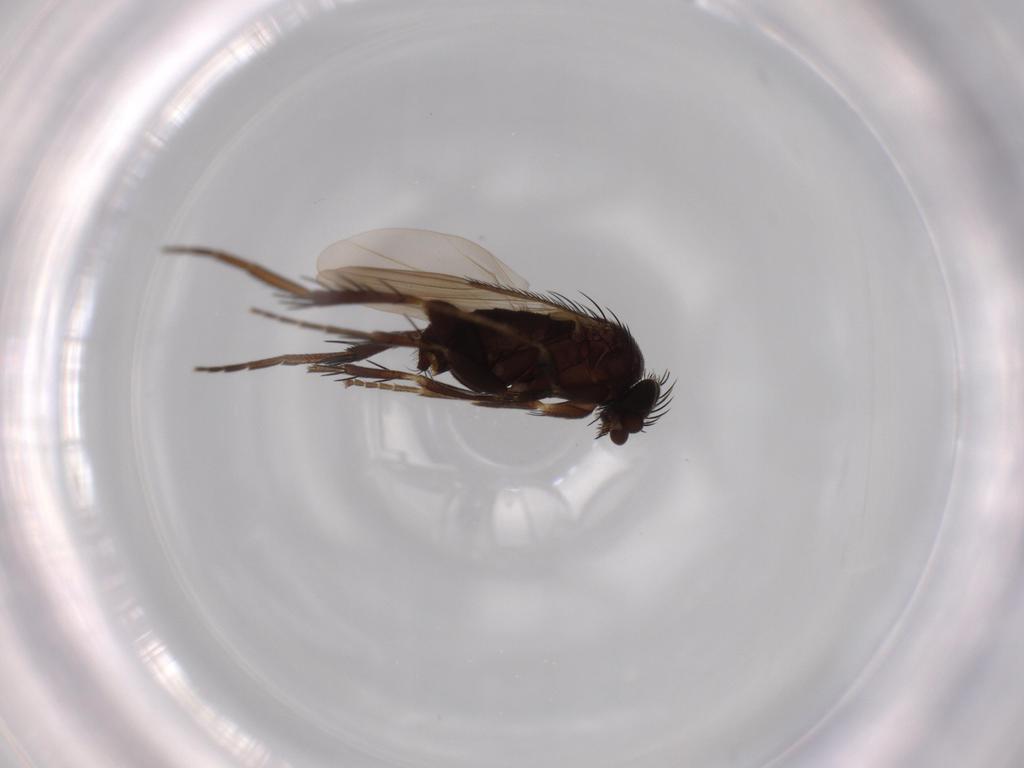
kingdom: Animalia
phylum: Arthropoda
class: Insecta
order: Diptera
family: Phoridae
